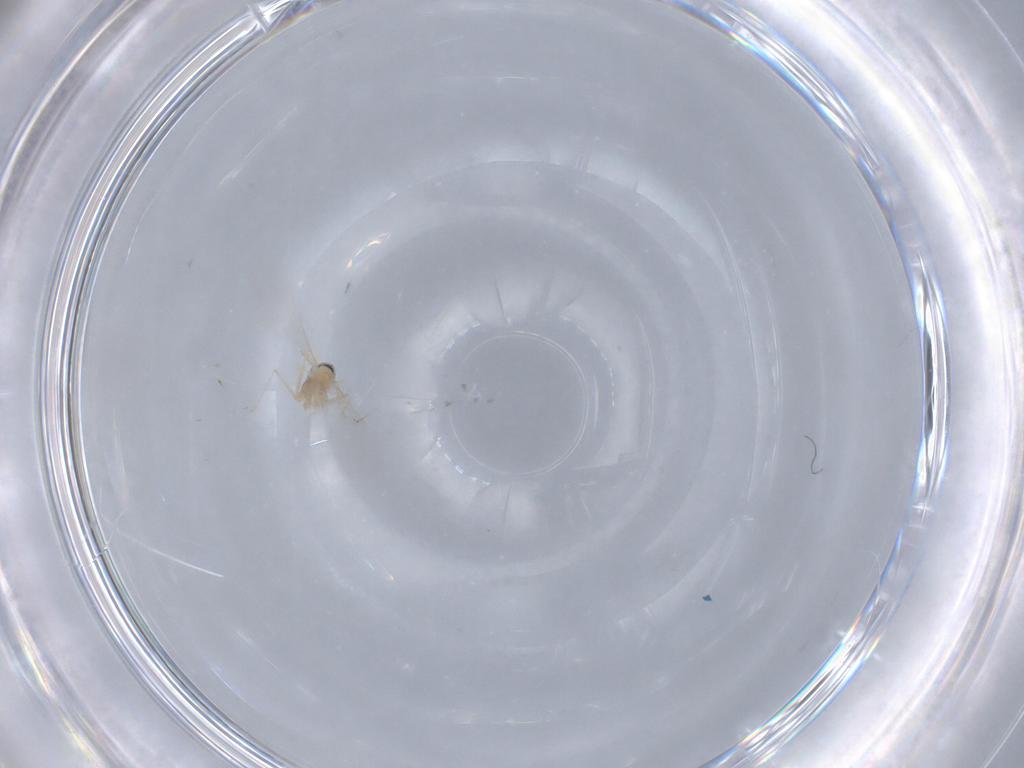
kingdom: Animalia
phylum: Arthropoda
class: Insecta
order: Diptera
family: Cecidomyiidae
